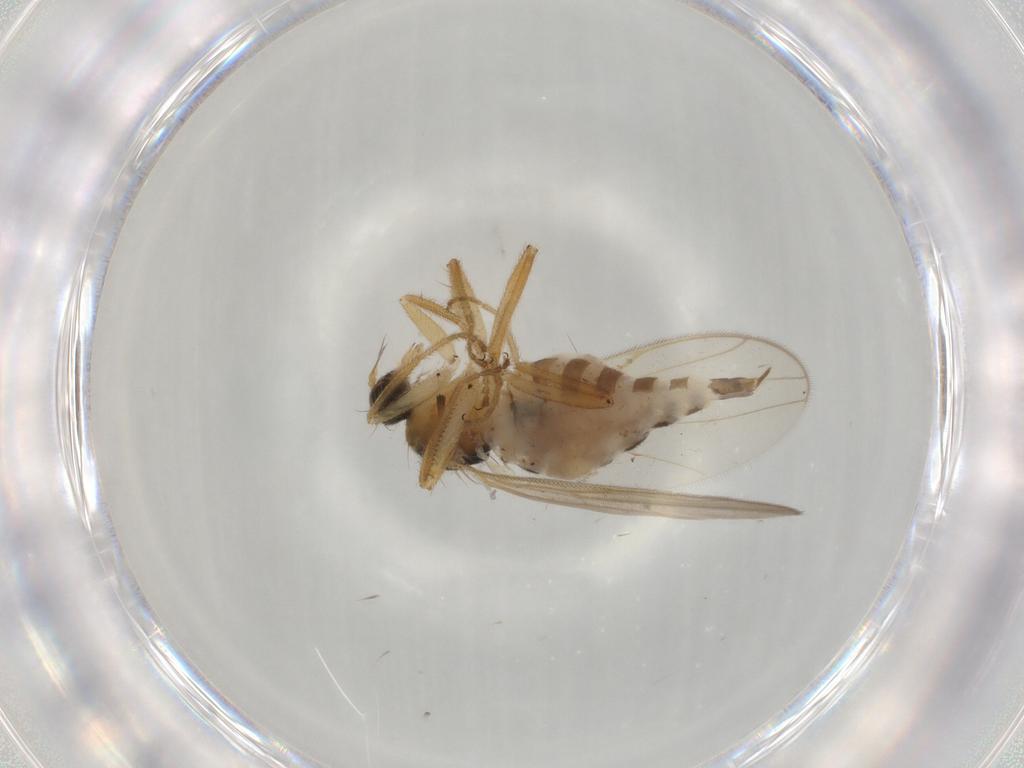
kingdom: Animalia
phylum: Arthropoda
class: Insecta
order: Diptera
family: Hybotidae
